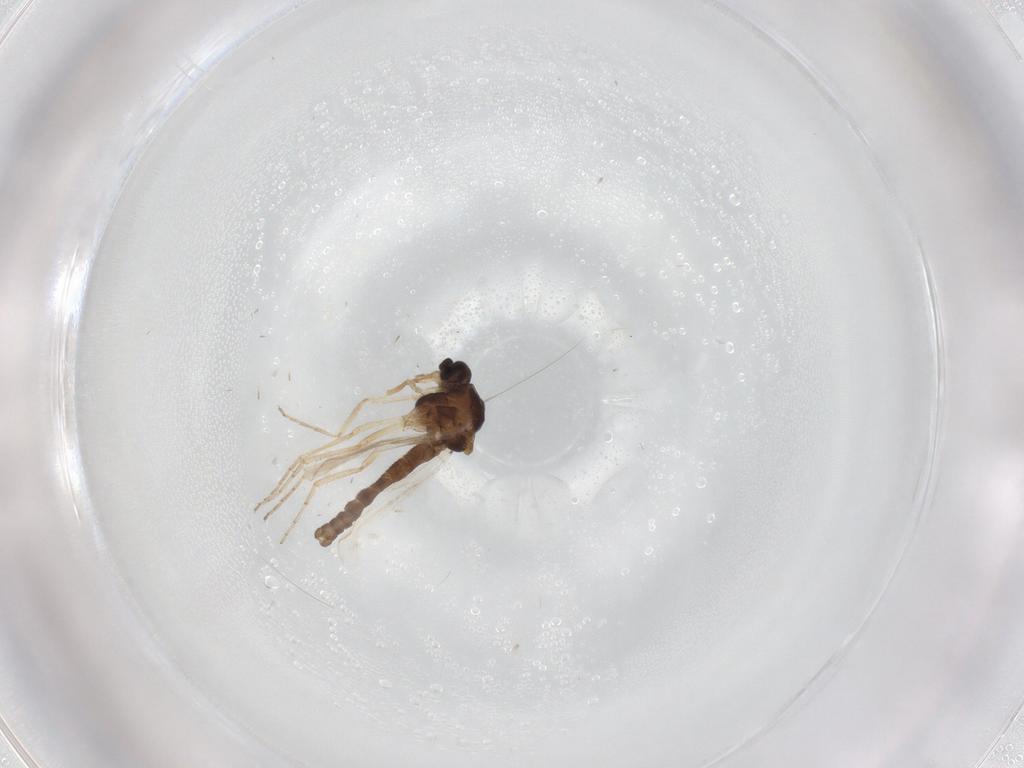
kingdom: Animalia
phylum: Arthropoda
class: Insecta
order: Diptera
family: Ceratopogonidae
